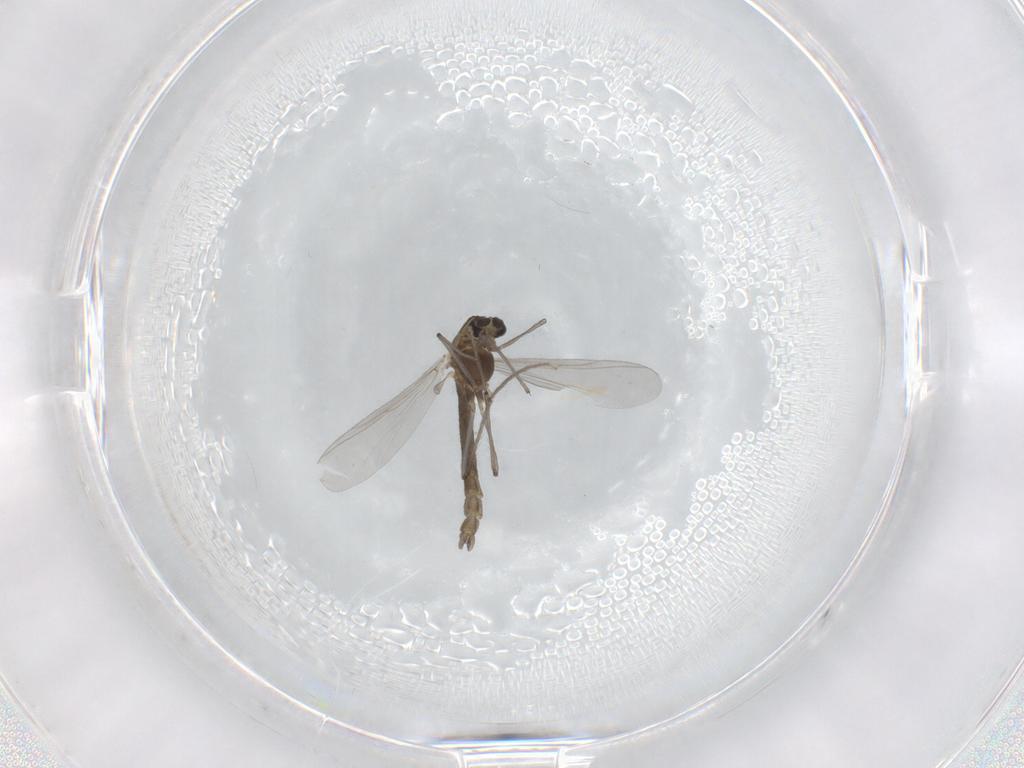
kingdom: Animalia
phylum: Arthropoda
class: Insecta
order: Diptera
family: Chironomidae
